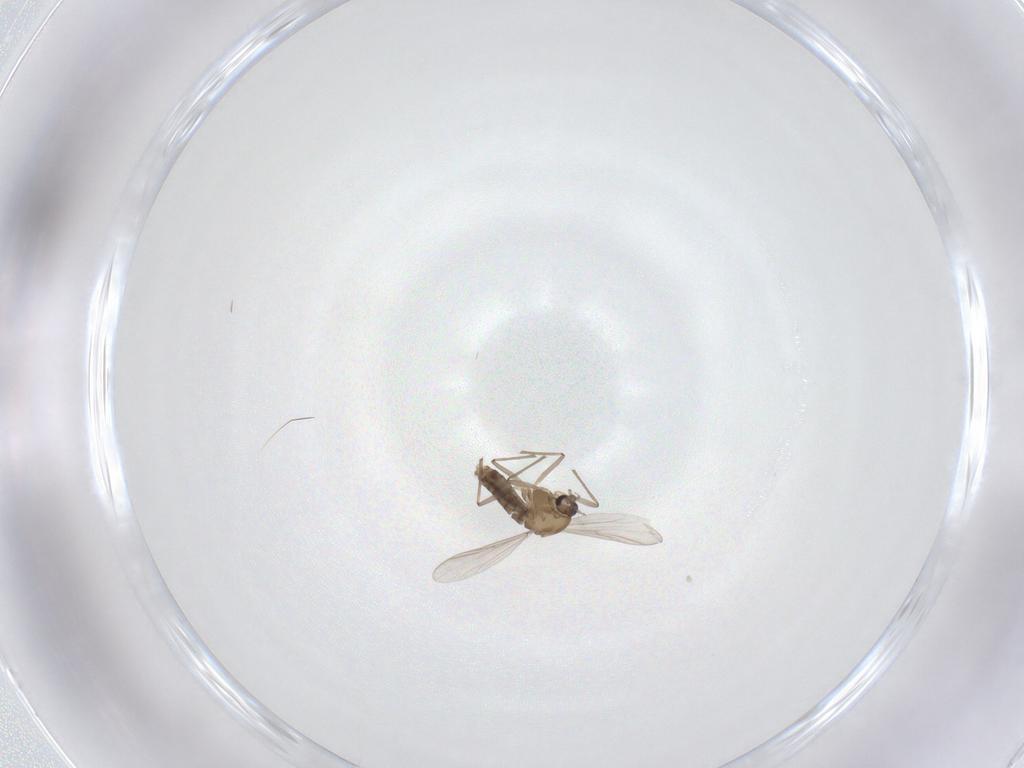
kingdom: Animalia
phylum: Arthropoda
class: Insecta
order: Diptera
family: Chironomidae
